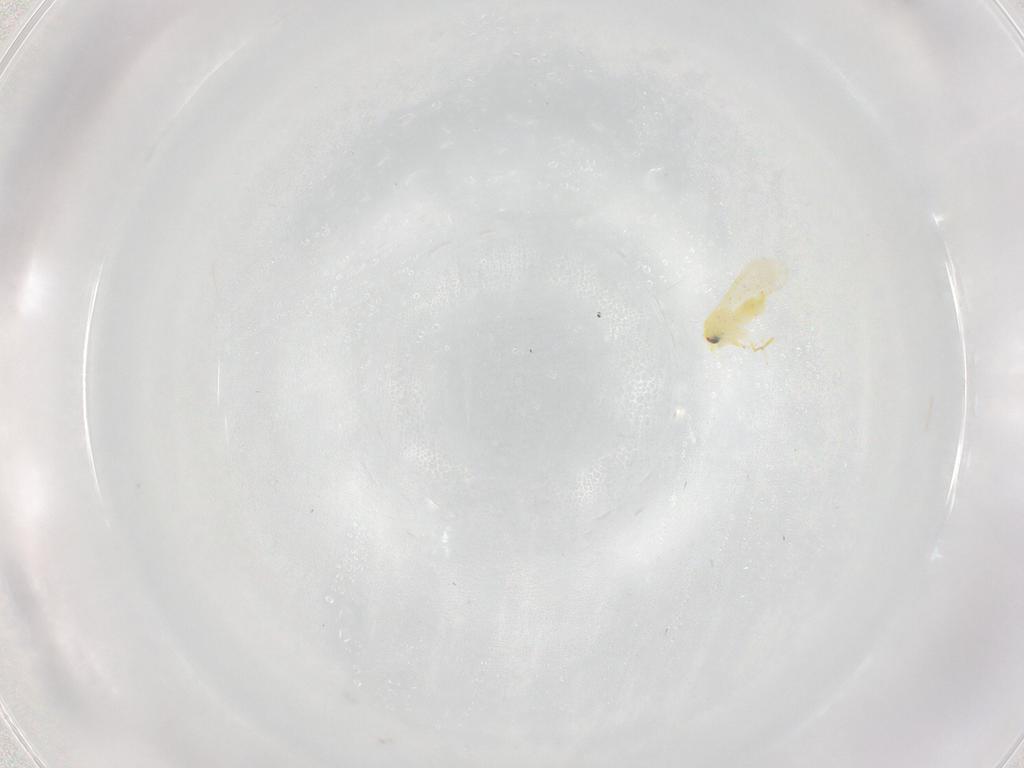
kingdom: Animalia
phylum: Arthropoda
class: Insecta
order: Hemiptera
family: Aleyrodidae
